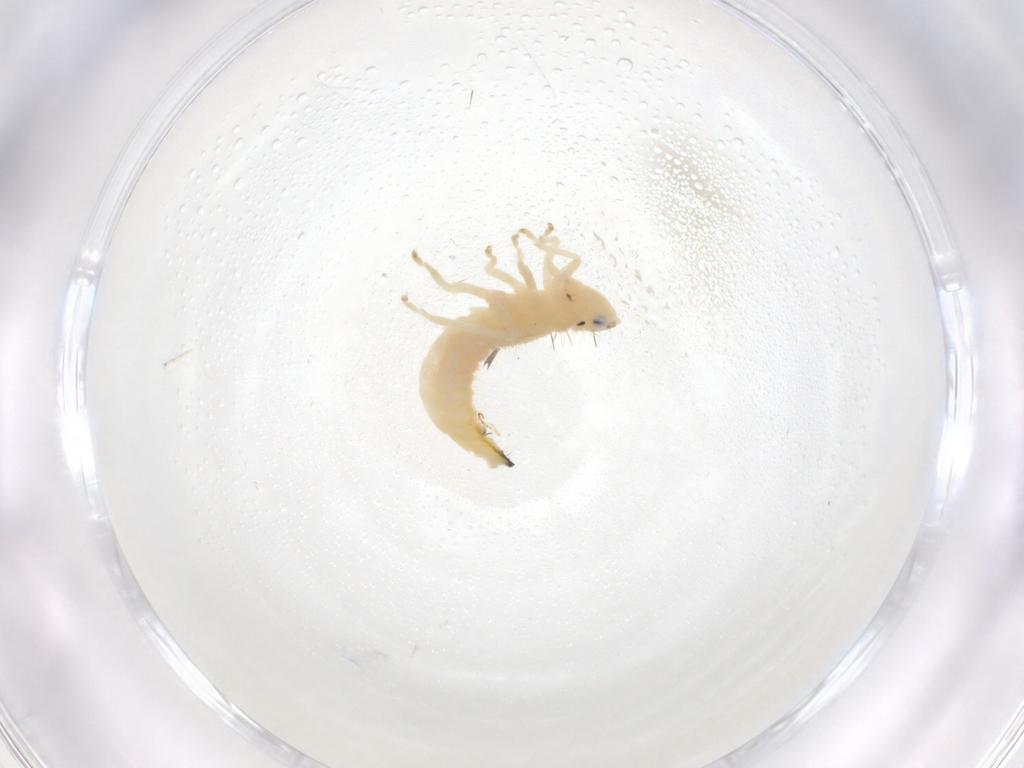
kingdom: Animalia
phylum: Arthropoda
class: Insecta
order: Hemiptera
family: Cicadellidae
